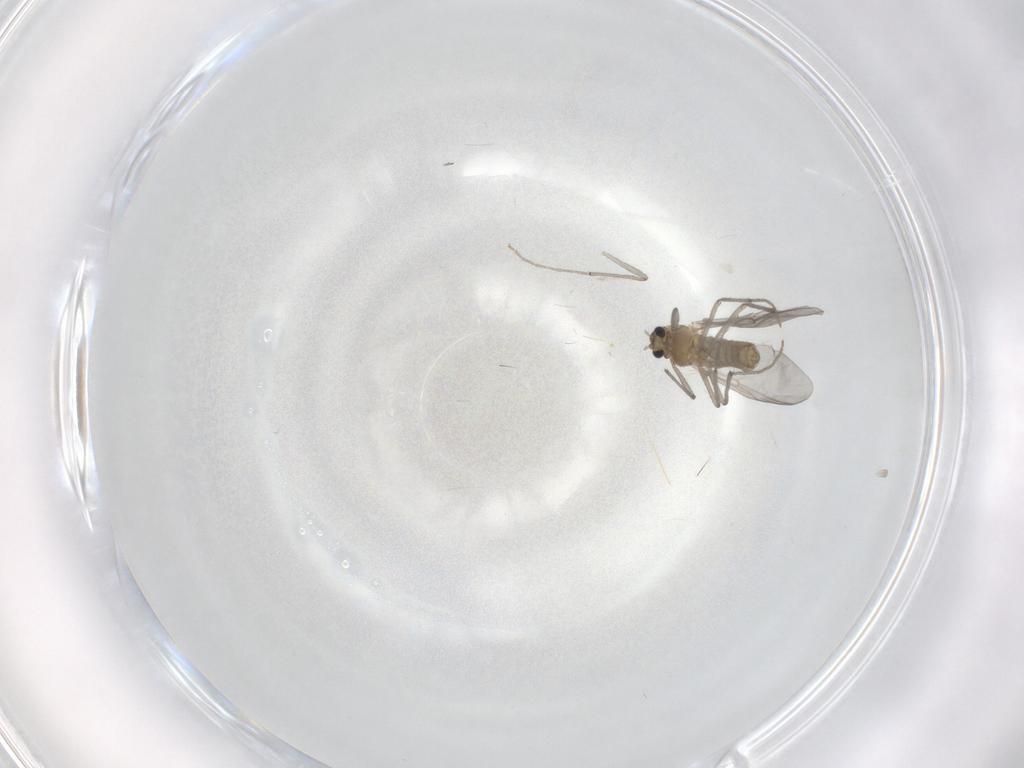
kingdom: Animalia
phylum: Arthropoda
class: Insecta
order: Diptera
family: Chironomidae
